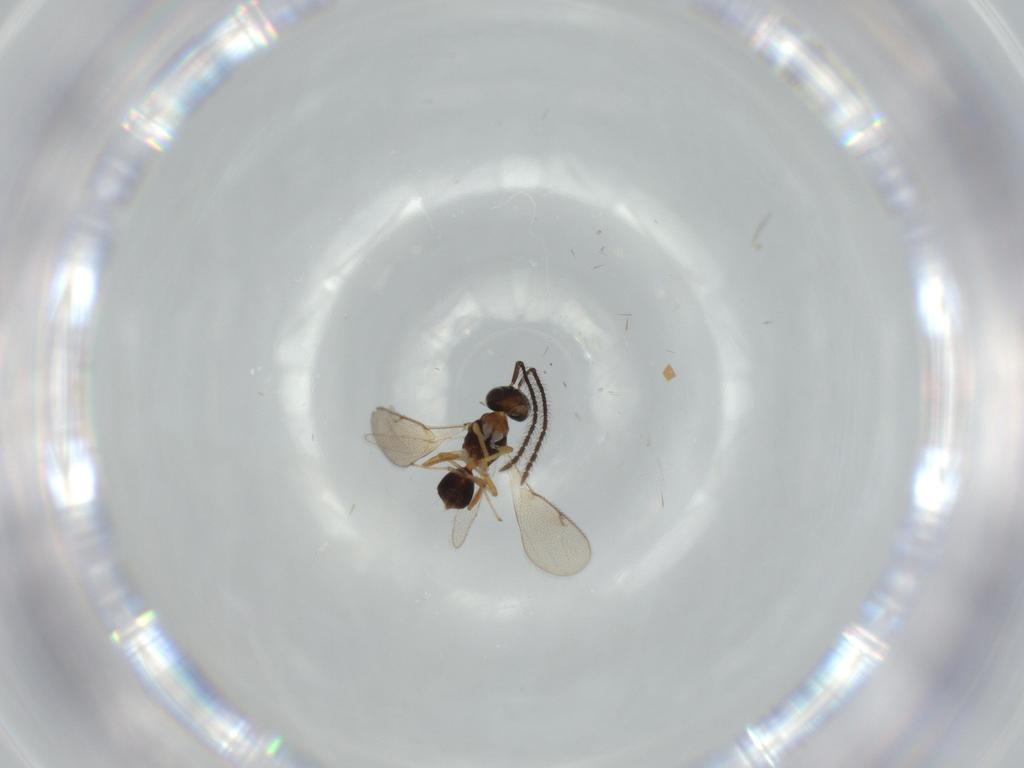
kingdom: Animalia
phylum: Arthropoda
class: Insecta
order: Hymenoptera
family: Diparidae
